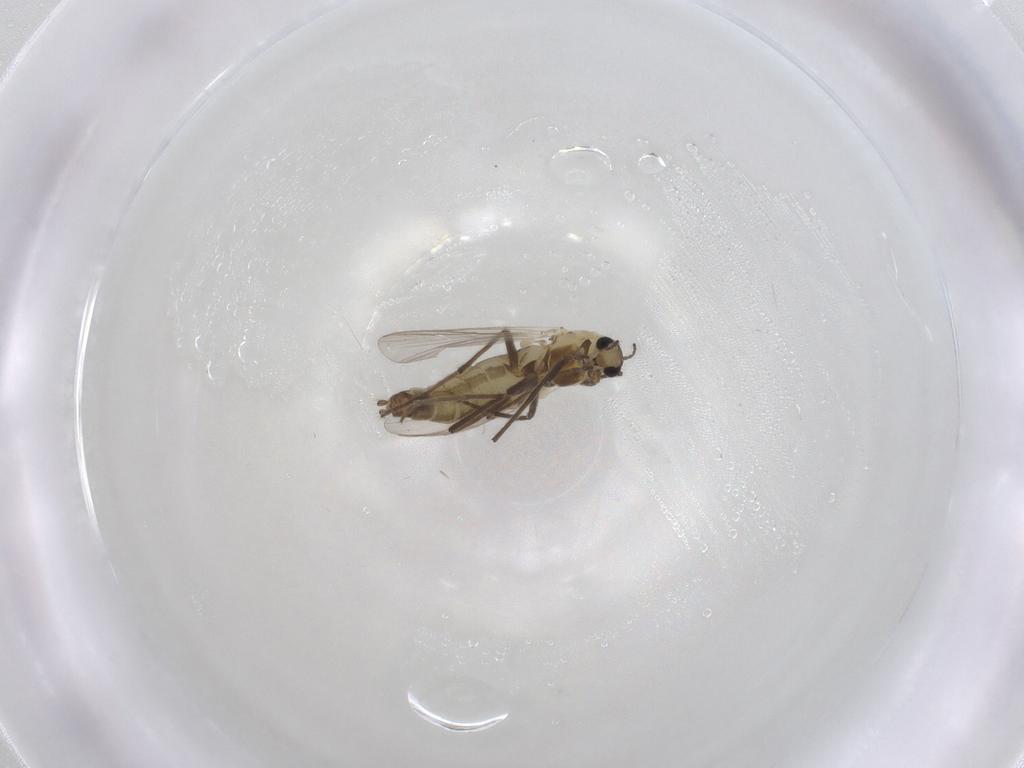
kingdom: Animalia
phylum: Arthropoda
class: Insecta
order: Diptera
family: Chironomidae
